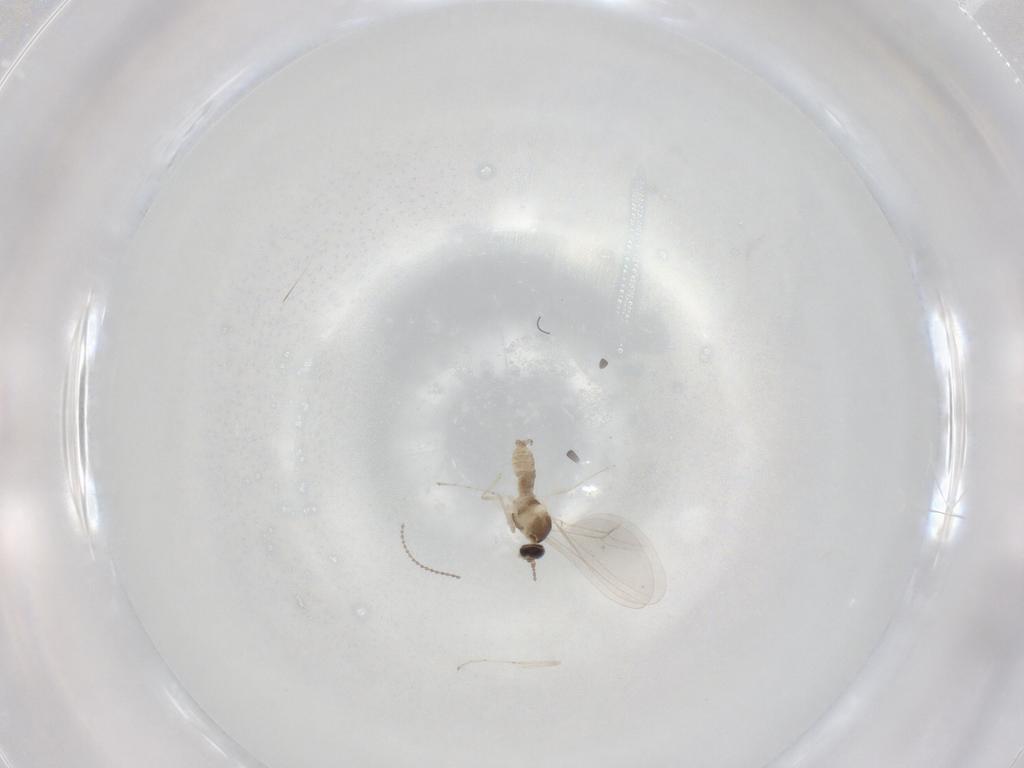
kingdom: Animalia
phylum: Arthropoda
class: Insecta
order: Diptera
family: Cecidomyiidae
